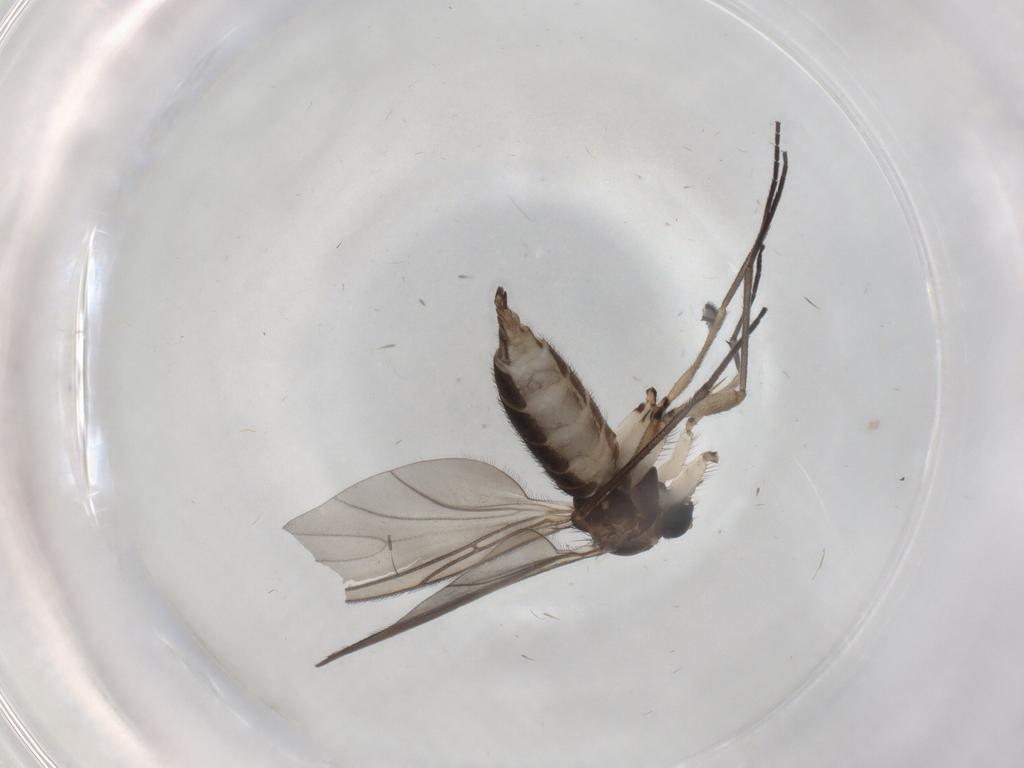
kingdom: Animalia
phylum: Arthropoda
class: Insecta
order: Diptera
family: Sciaridae
